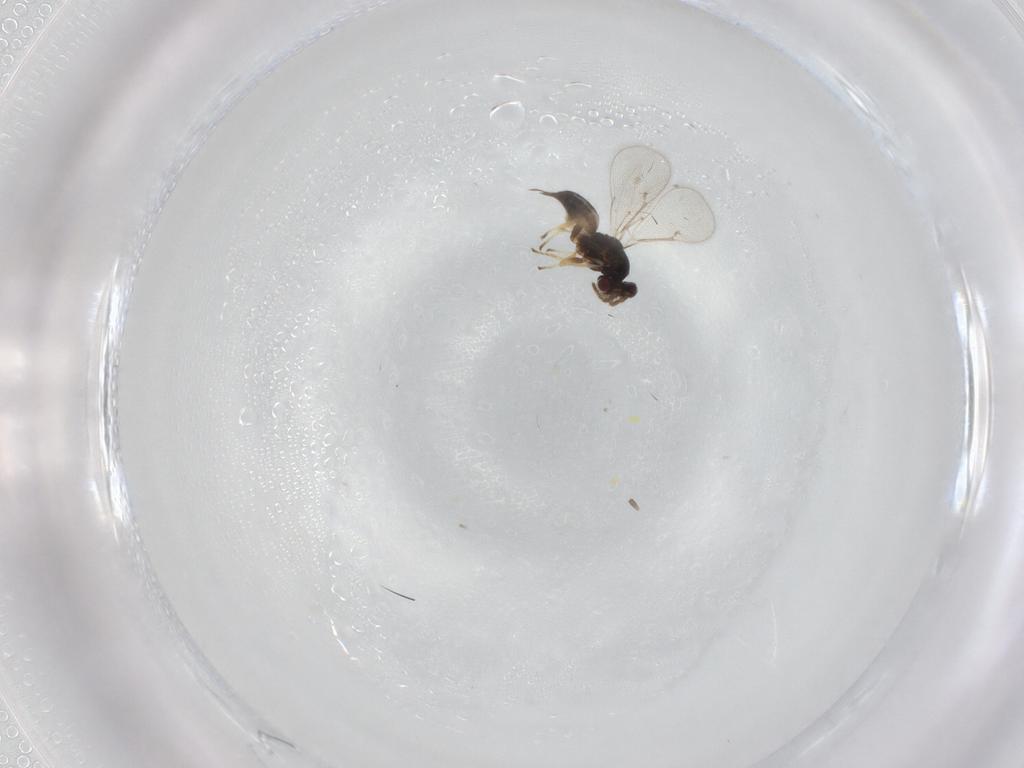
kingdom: Animalia
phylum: Arthropoda
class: Insecta
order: Hymenoptera
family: Eulophidae
